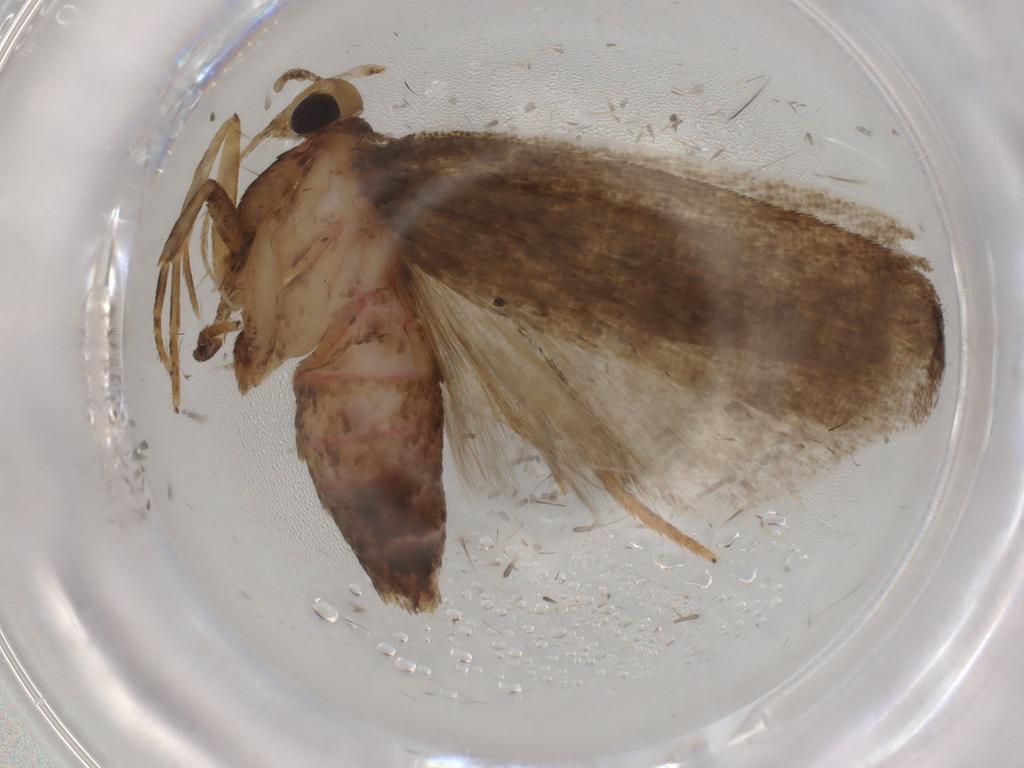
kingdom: Animalia
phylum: Arthropoda
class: Insecta
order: Lepidoptera
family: Autostichidae
